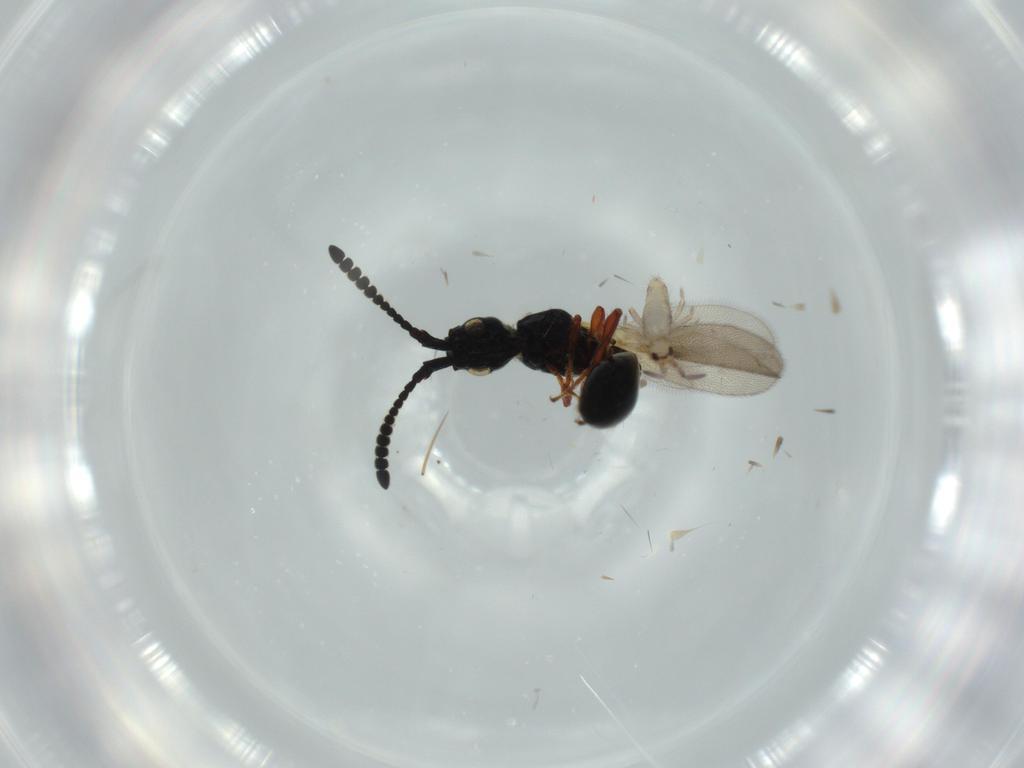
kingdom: Animalia
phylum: Arthropoda
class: Collembola
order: Entomobryomorpha
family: Entomobryidae
